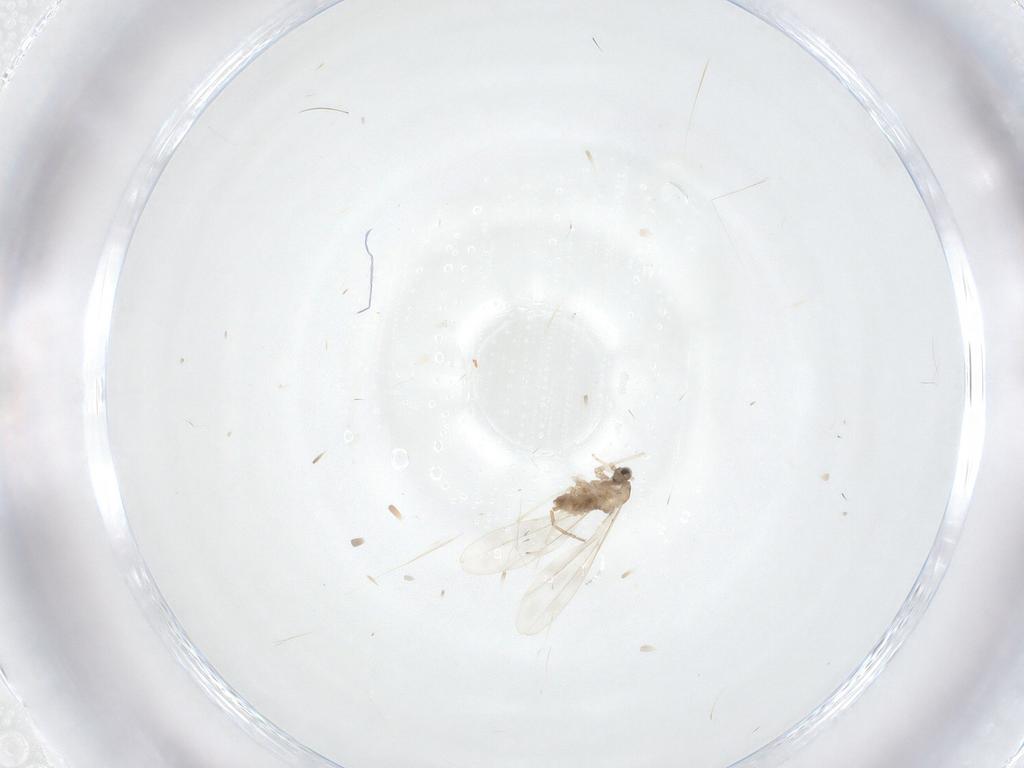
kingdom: Animalia
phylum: Arthropoda
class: Insecta
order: Diptera
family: Cecidomyiidae
